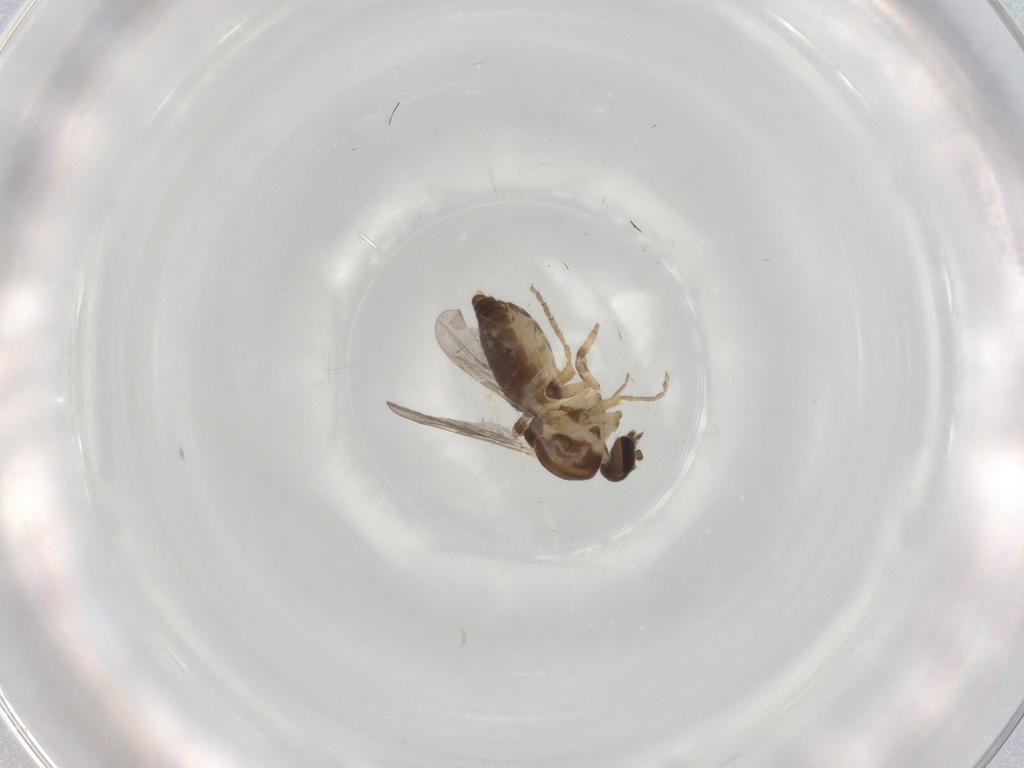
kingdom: Animalia
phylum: Arthropoda
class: Insecta
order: Diptera
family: Ceratopogonidae
